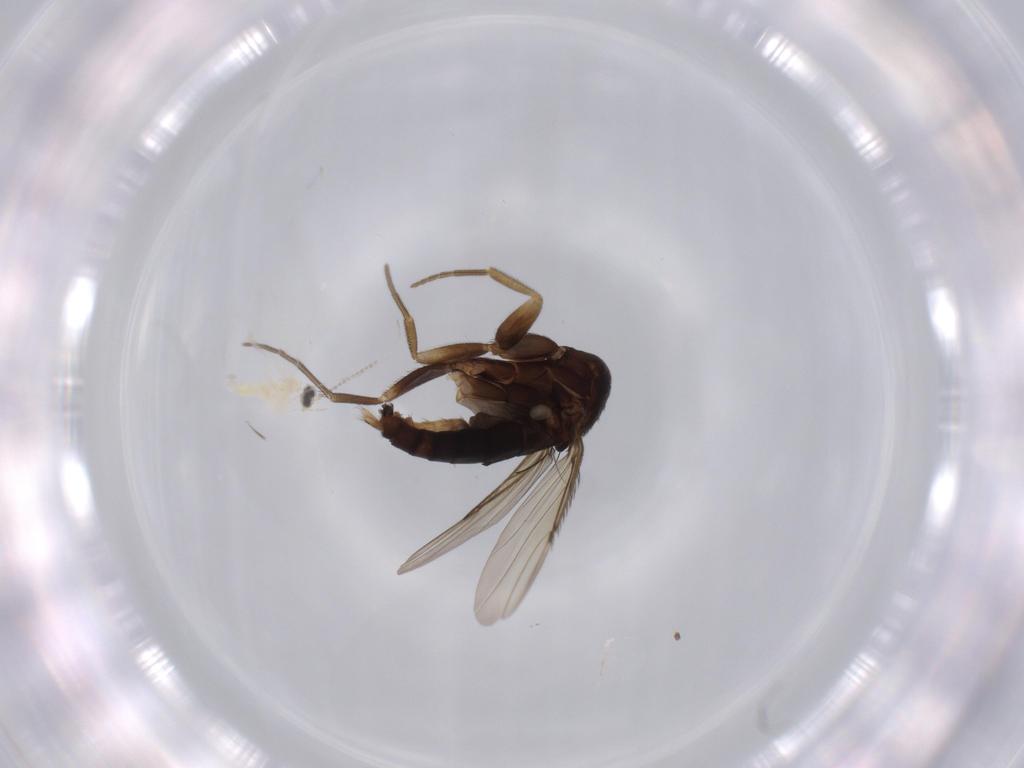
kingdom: Animalia
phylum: Arthropoda
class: Insecta
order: Diptera
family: Phoridae
